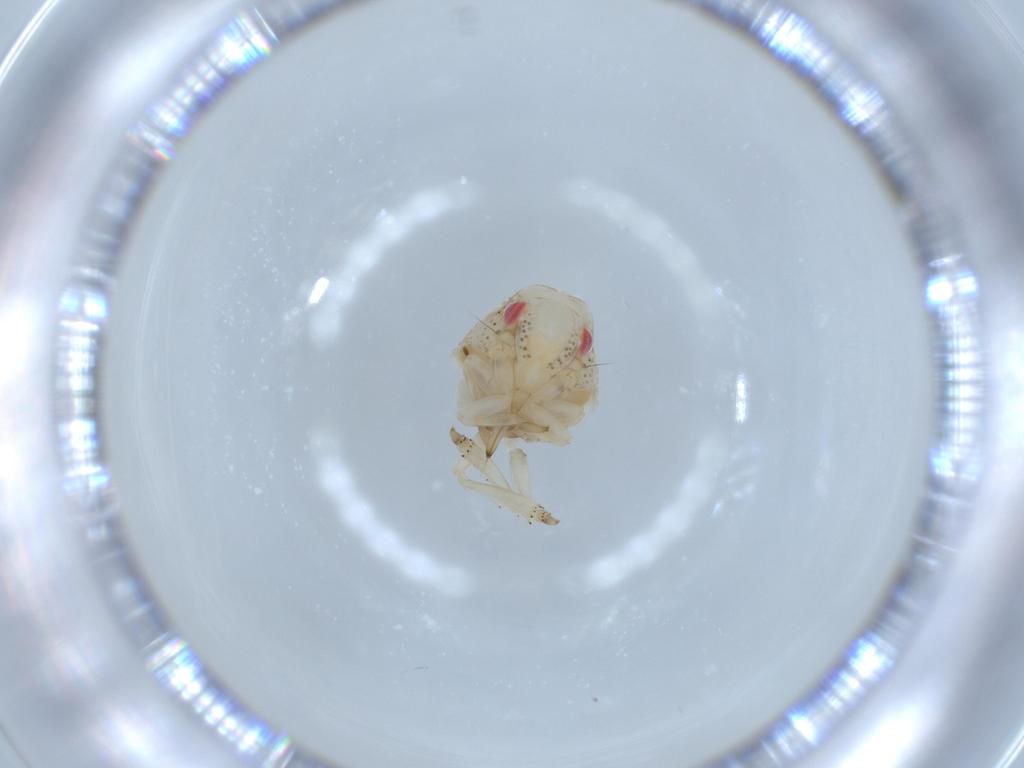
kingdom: Animalia
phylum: Arthropoda
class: Insecta
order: Hemiptera
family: Acanaloniidae
